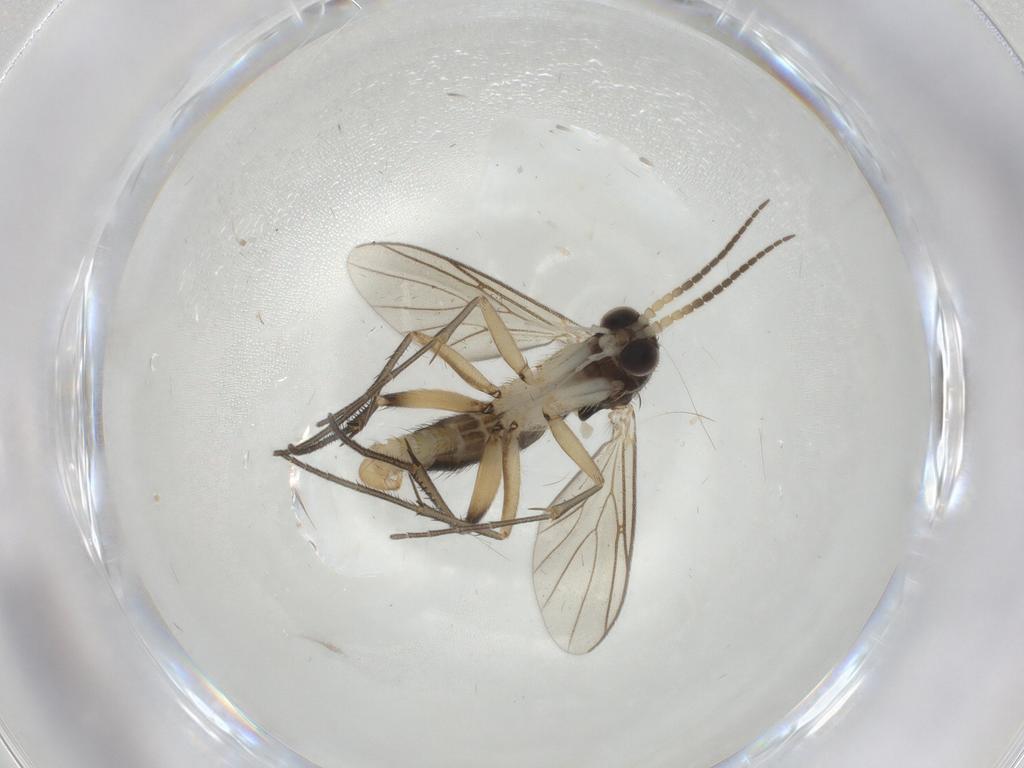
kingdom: Animalia
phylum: Arthropoda
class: Insecta
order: Diptera
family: Mycetophilidae
